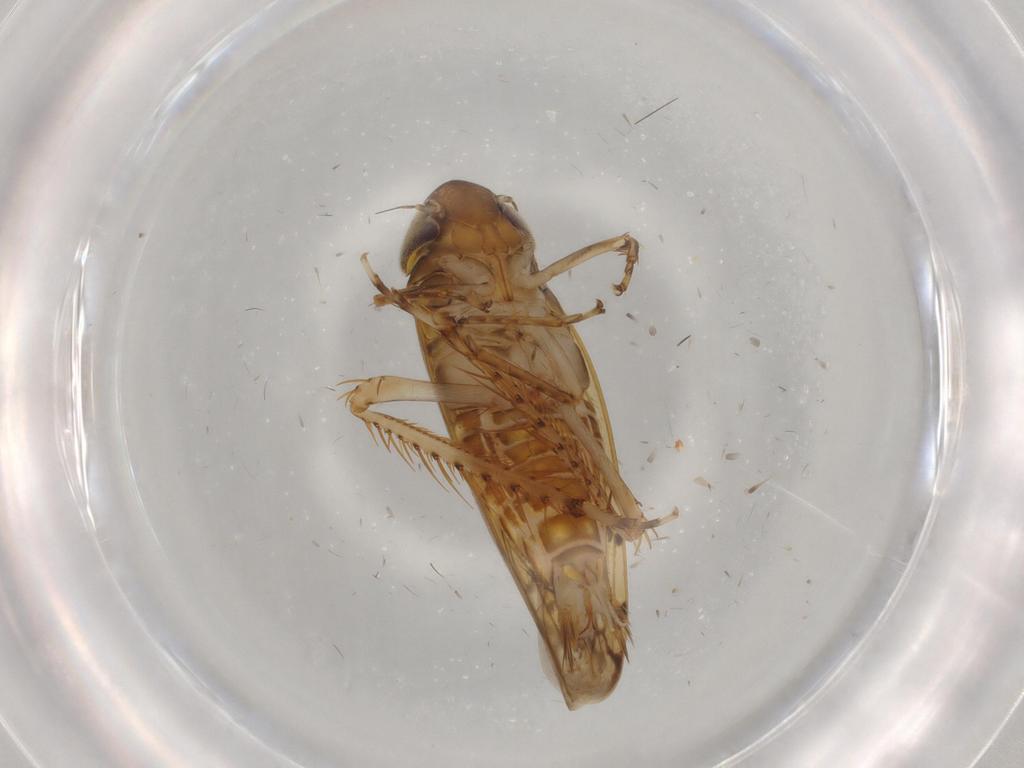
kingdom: Animalia
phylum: Arthropoda
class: Insecta
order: Hemiptera
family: Cicadellidae
